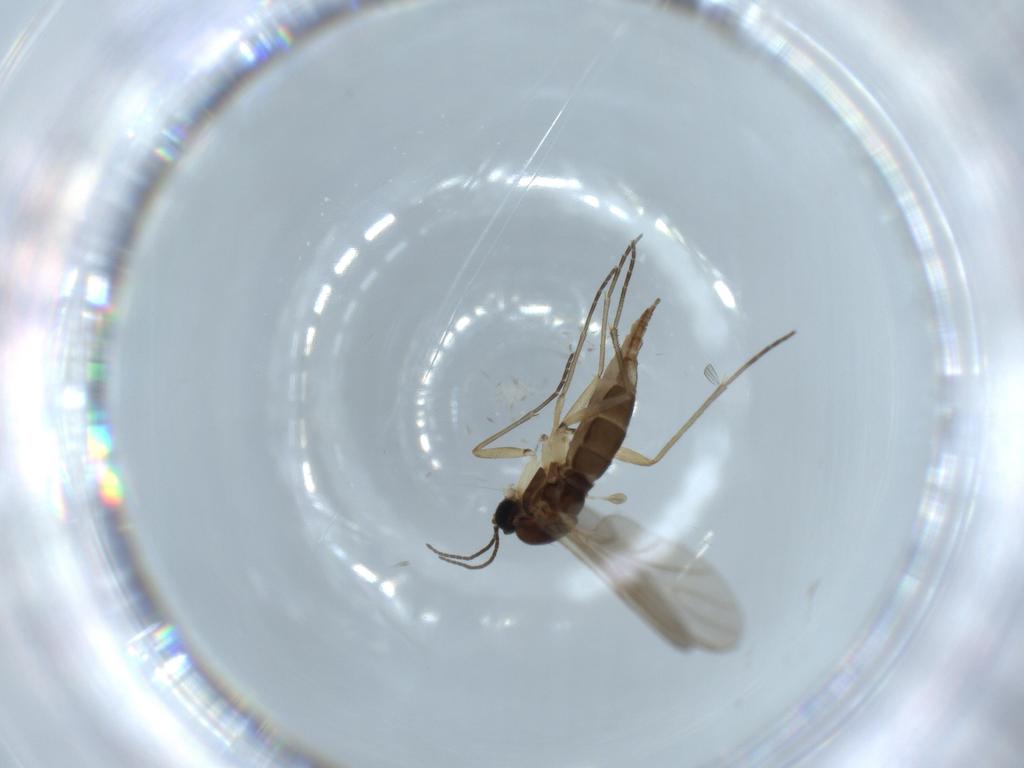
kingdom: Animalia
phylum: Arthropoda
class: Insecta
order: Diptera
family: Sciaridae
